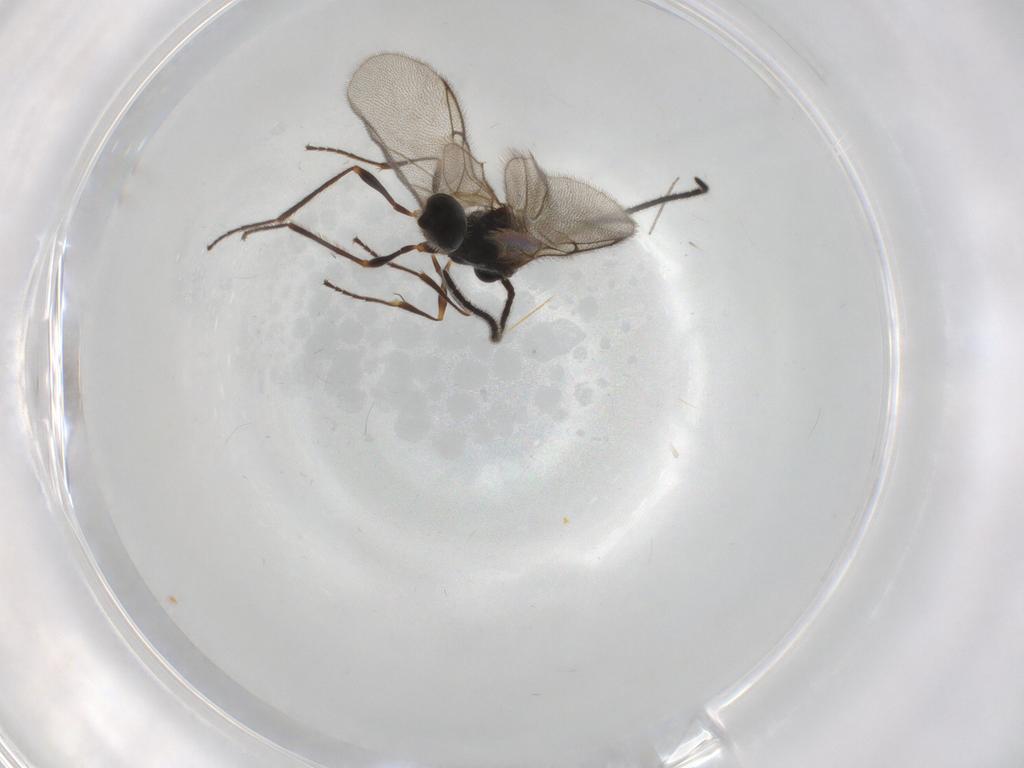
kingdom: Animalia
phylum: Arthropoda
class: Insecta
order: Hymenoptera
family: Diapriidae
